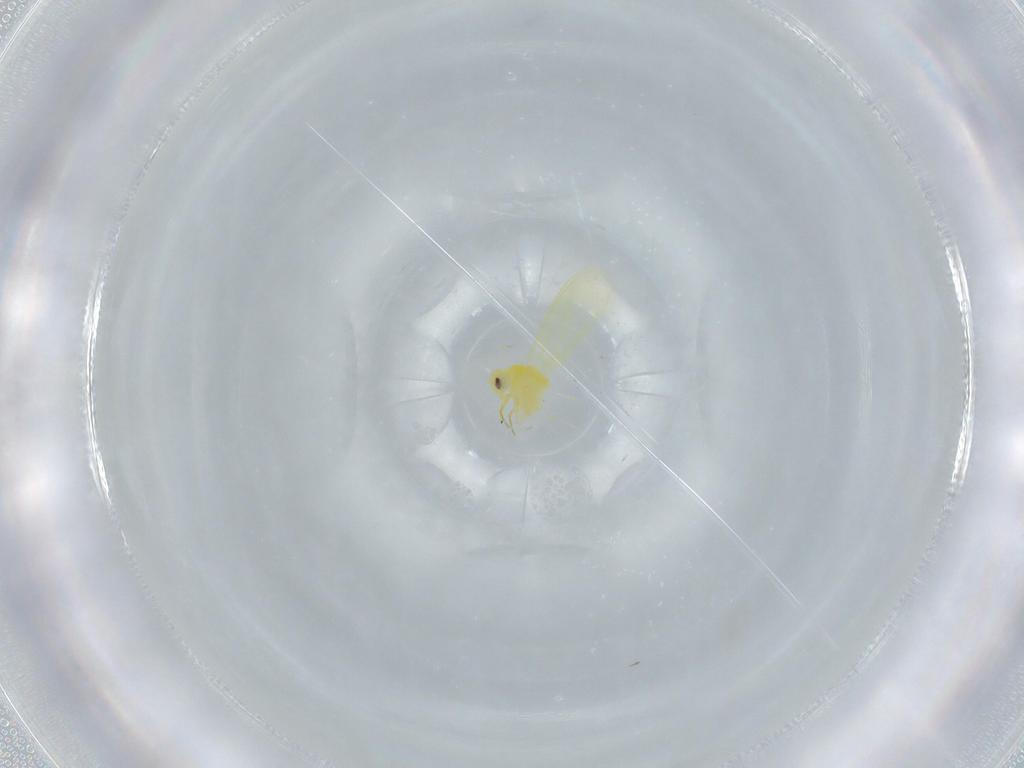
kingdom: Animalia
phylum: Arthropoda
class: Insecta
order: Hemiptera
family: Aleyrodidae
